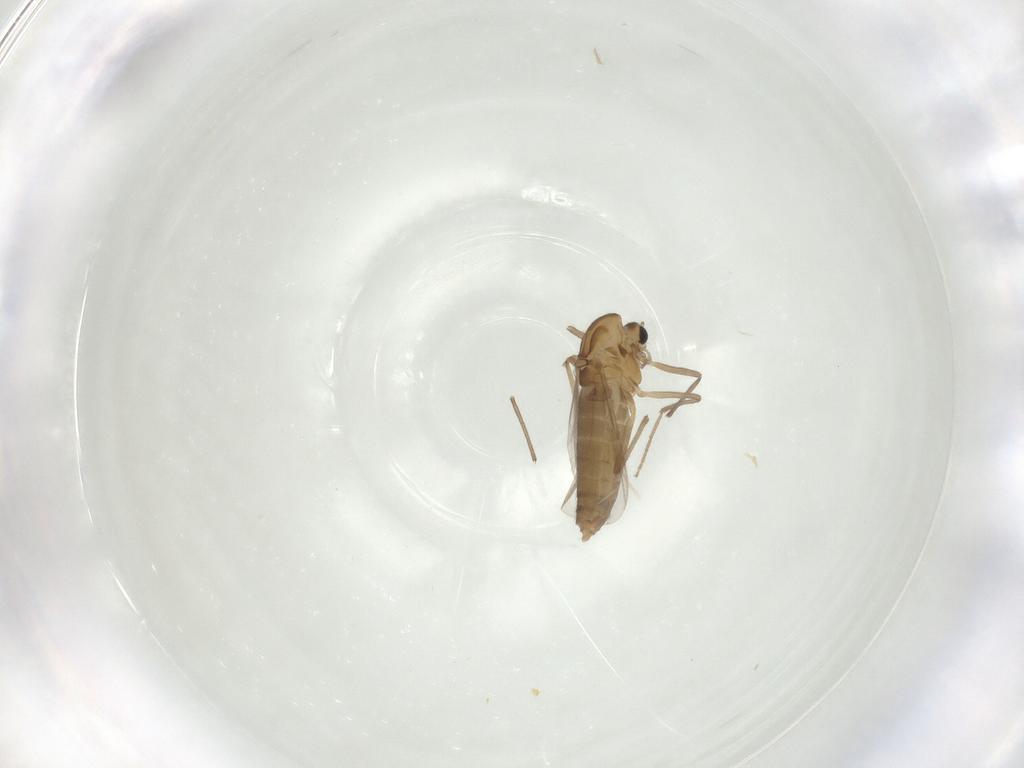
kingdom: Animalia
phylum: Arthropoda
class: Insecta
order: Diptera
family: Chironomidae
